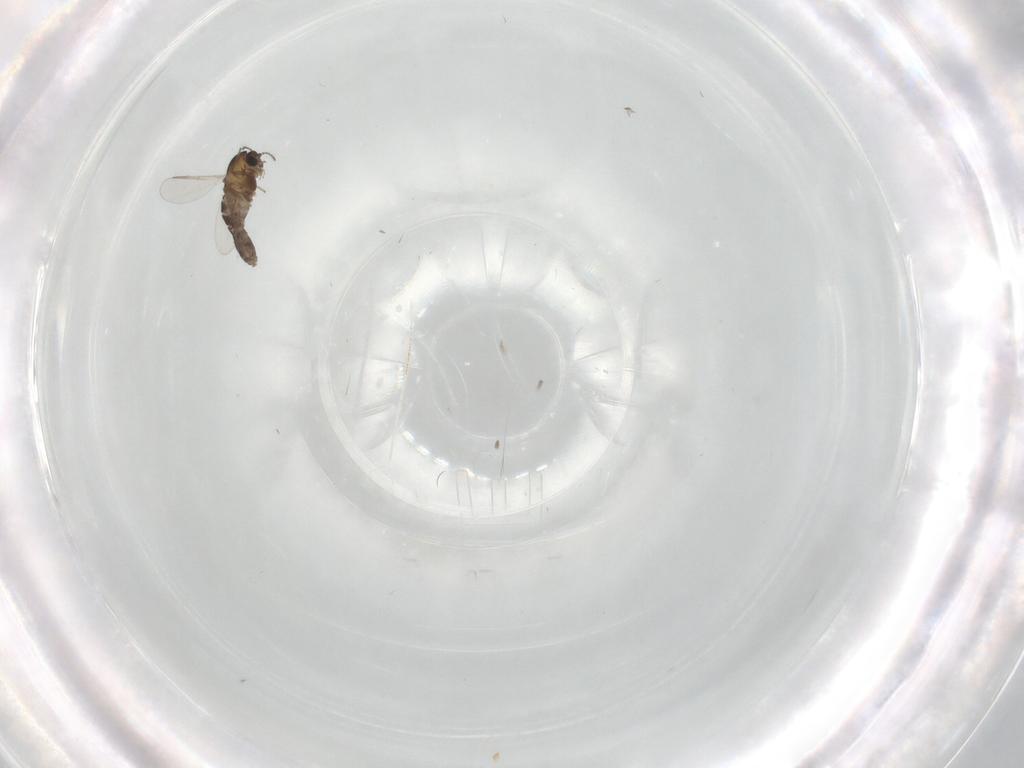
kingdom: Animalia
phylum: Arthropoda
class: Insecta
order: Diptera
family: Chironomidae
